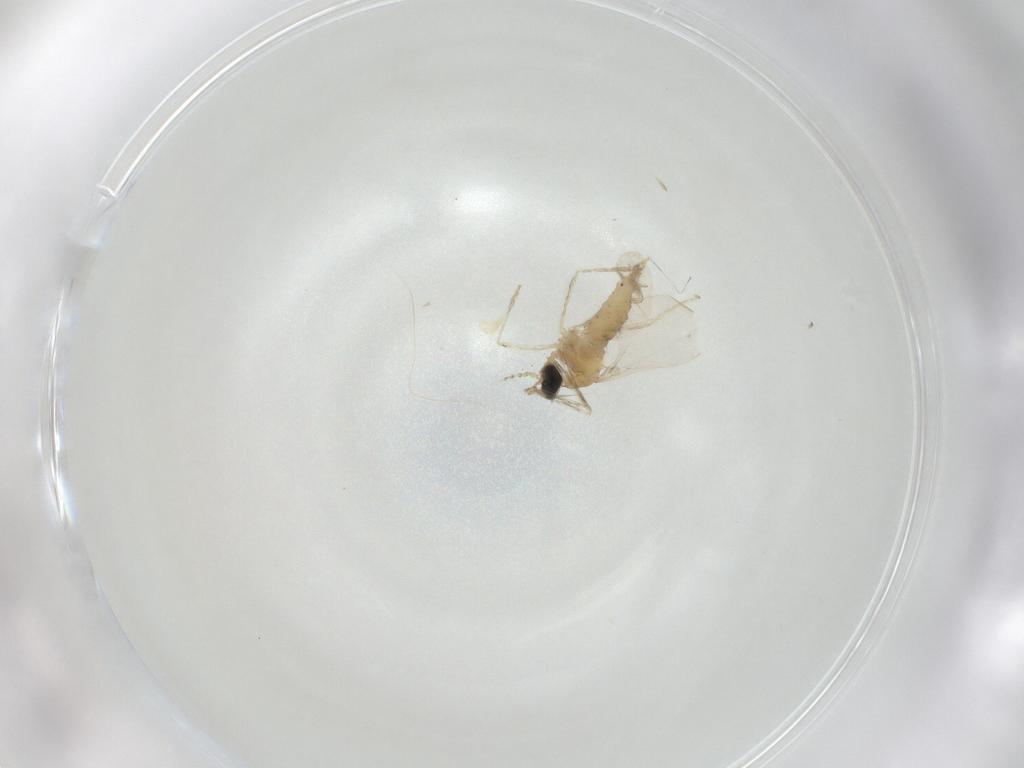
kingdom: Animalia
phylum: Arthropoda
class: Insecta
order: Diptera
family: Cecidomyiidae
